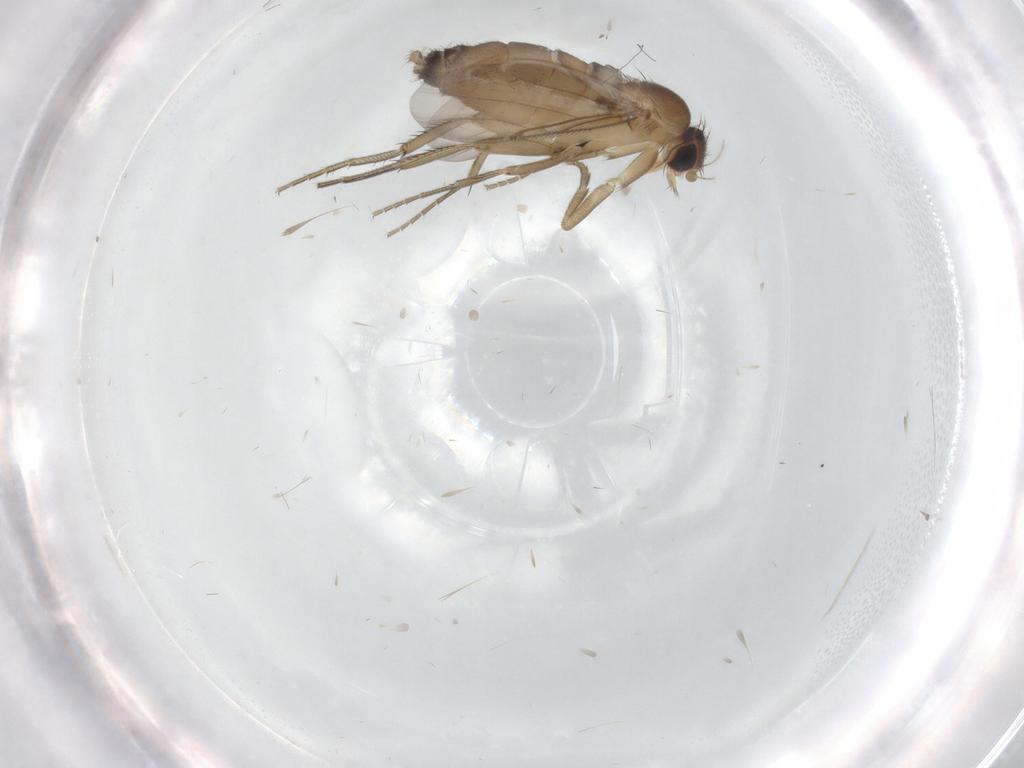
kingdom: Animalia
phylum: Arthropoda
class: Insecta
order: Diptera
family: Phoridae
